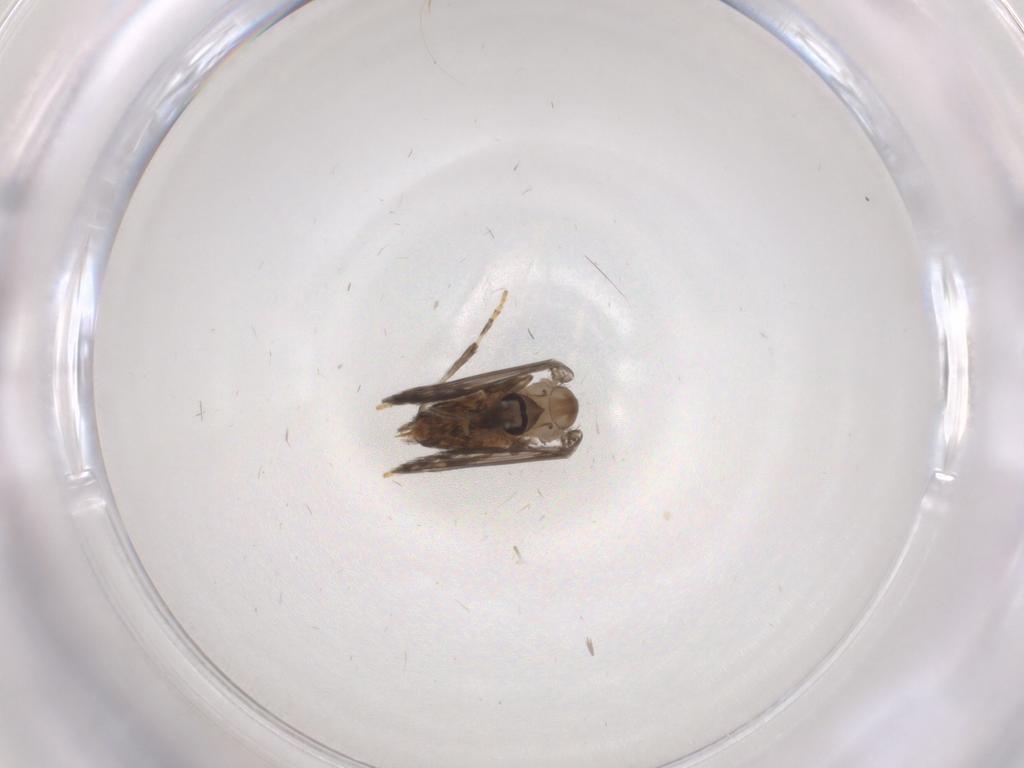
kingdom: Animalia
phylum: Arthropoda
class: Insecta
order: Diptera
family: Psychodidae
